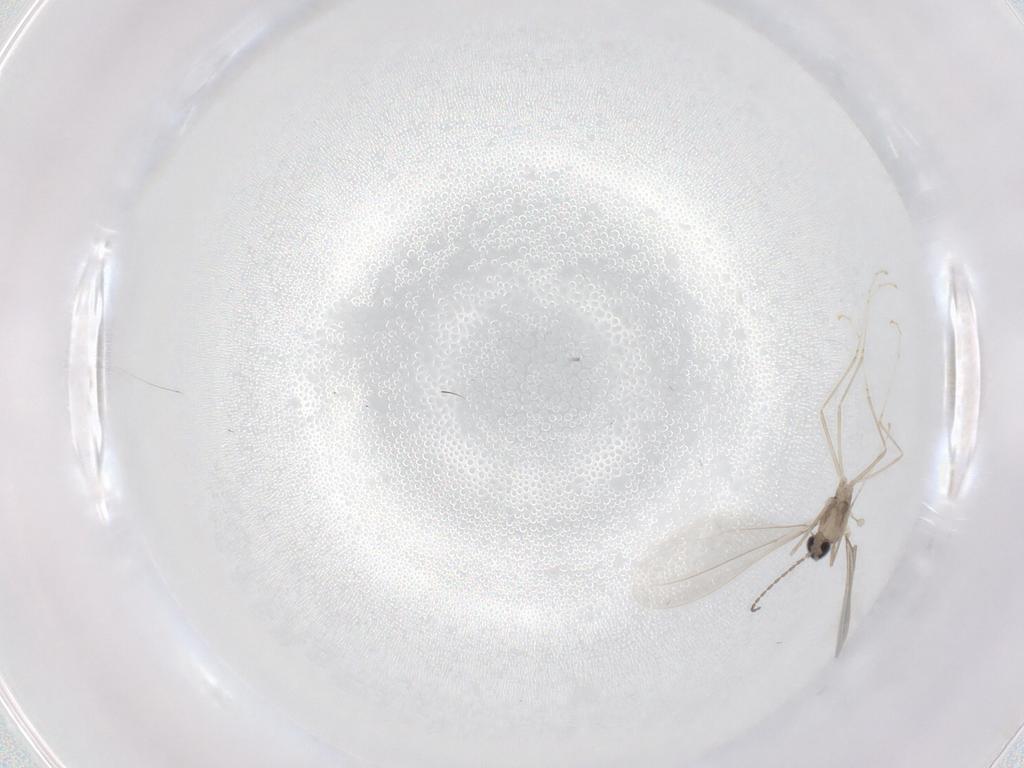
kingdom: Animalia
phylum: Arthropoda
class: Insecta
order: Diptera
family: Cecidomyiidae
